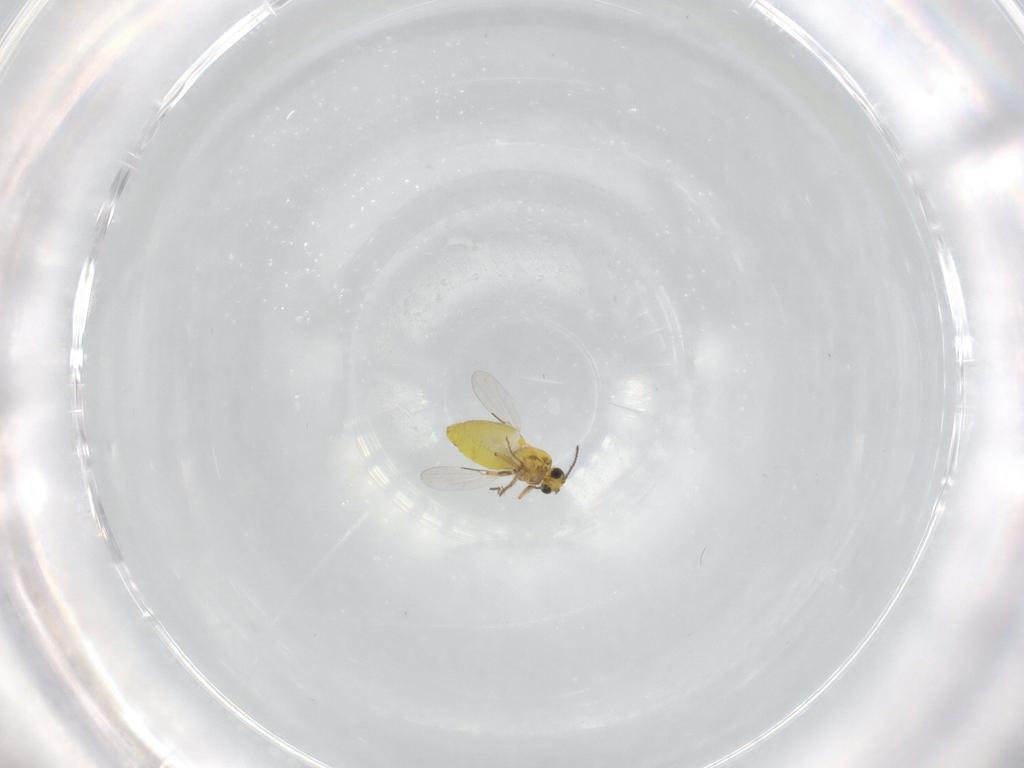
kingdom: Animalia
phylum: Arthropoda
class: Insecta
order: Diptera
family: Ceratopogonidae
